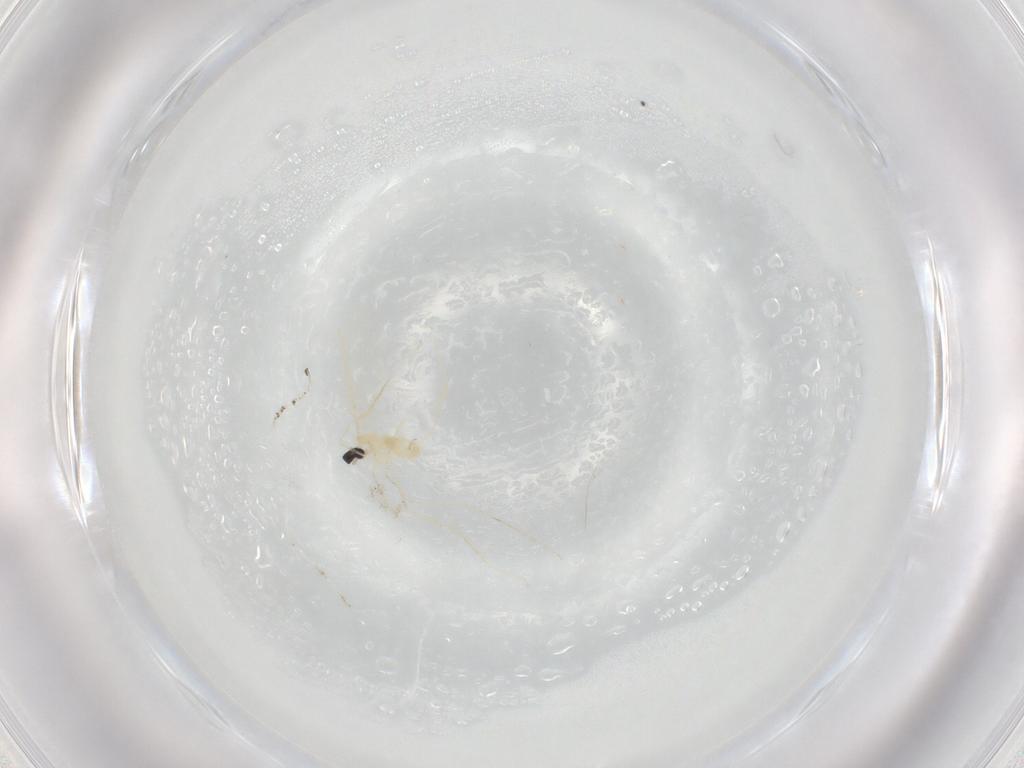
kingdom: Animalia
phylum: Arthropoda
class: Insecta
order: Diptera
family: Cecidomyiidae
